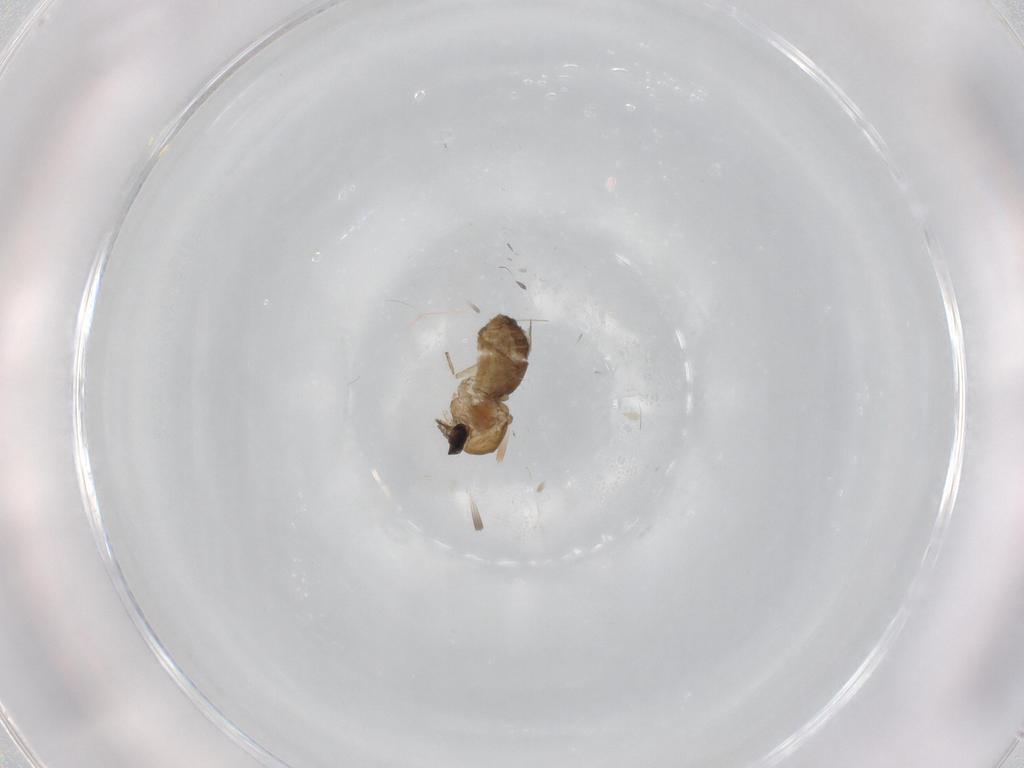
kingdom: Animalia
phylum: Arthropoda
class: Insecta
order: Diptera
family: Ceratopogonidae
